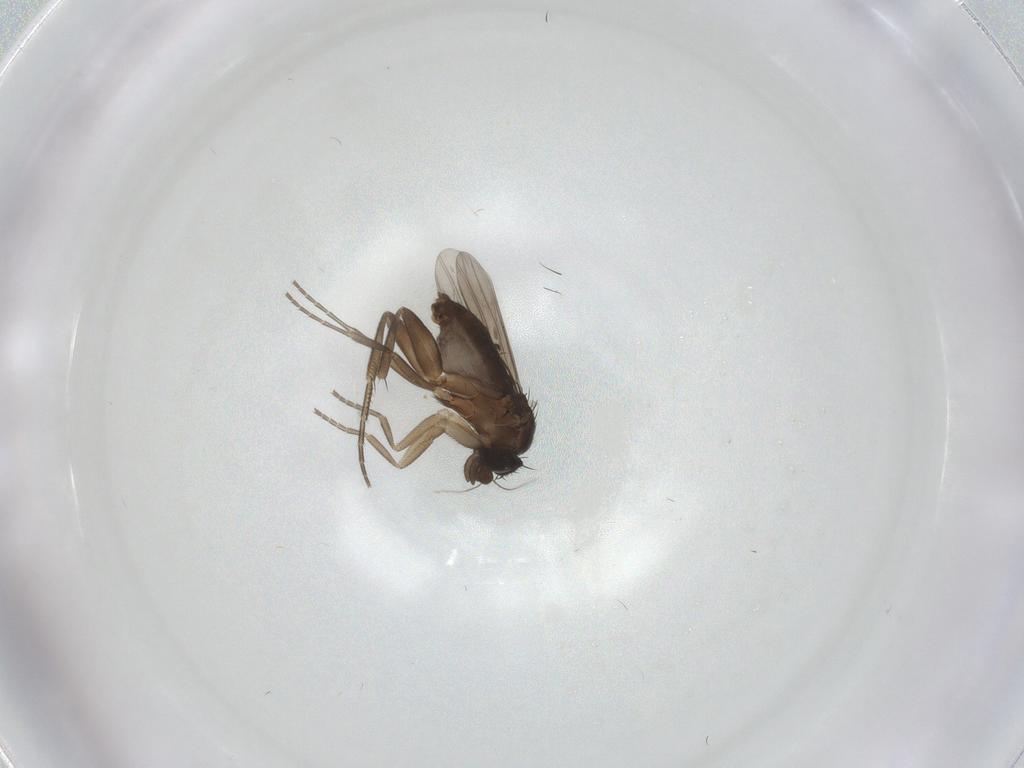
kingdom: Animalia
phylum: Arthropoda
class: Insecta
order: Diptera
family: Phoridae
